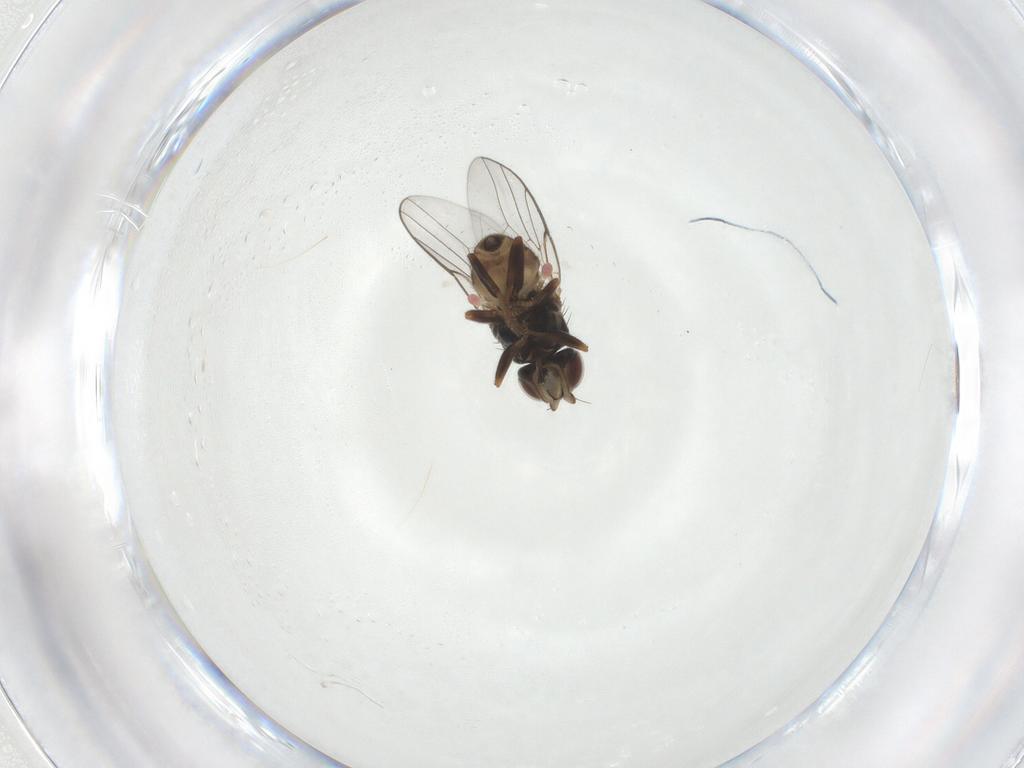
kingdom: Animalia
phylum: Arthropoda
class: Insecta
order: Diptera
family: Chloropidae
